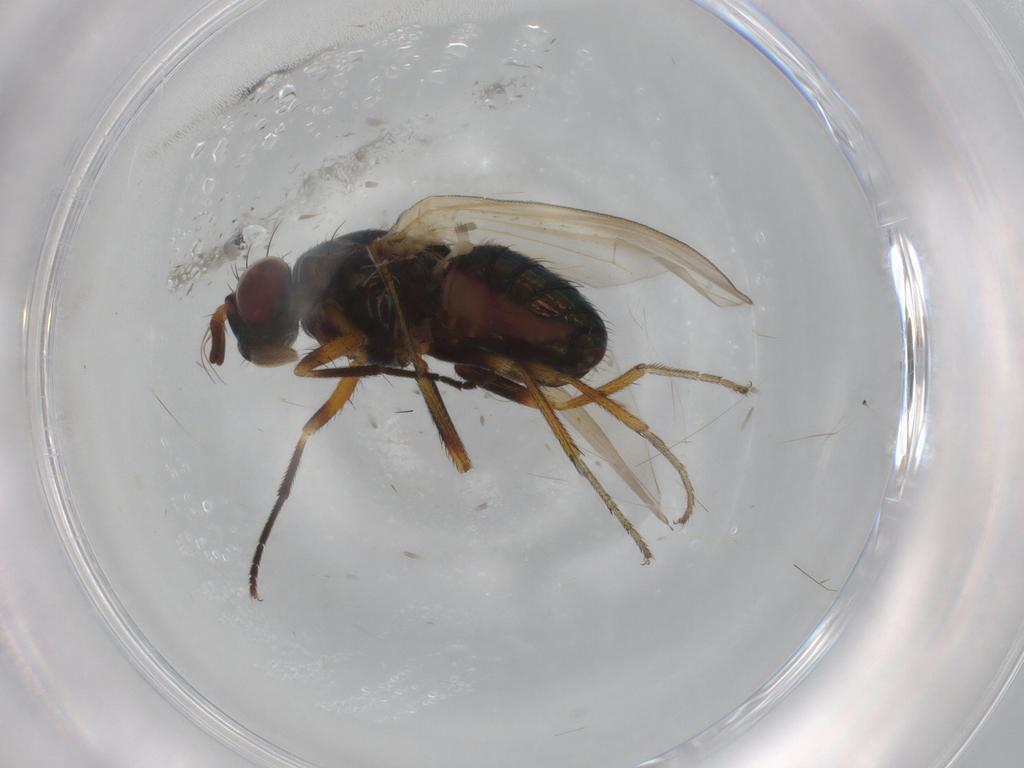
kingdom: Animalia
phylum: Arthropoda
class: Insecta
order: Diptera
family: Lauxaniidae
